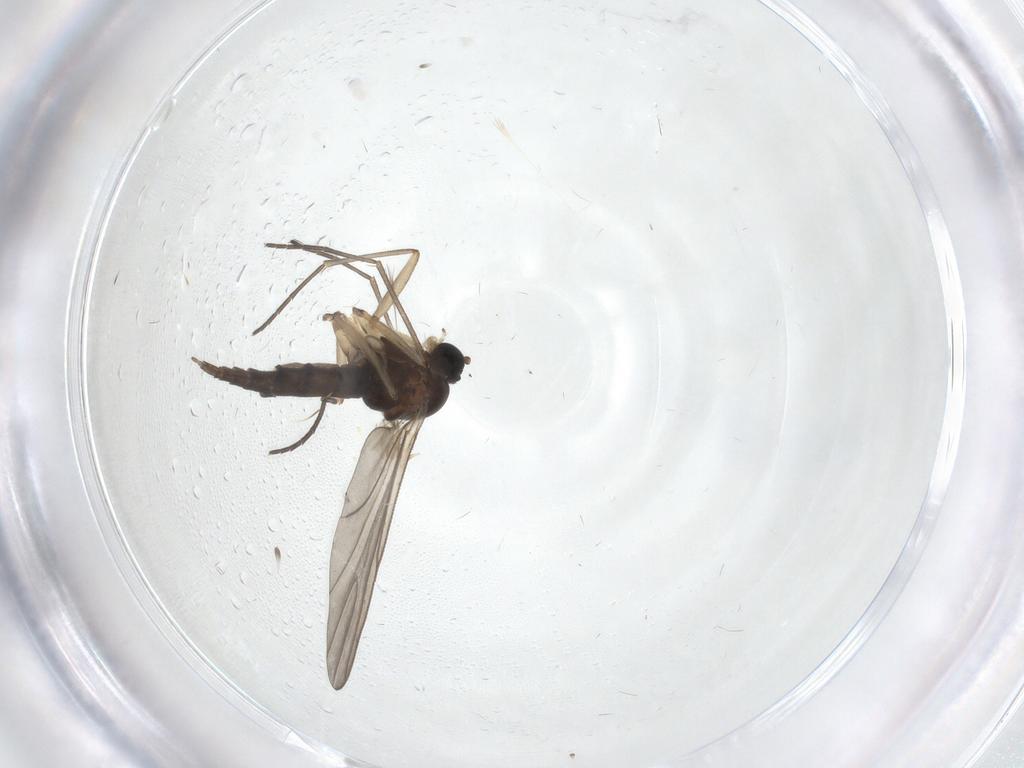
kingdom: Animalia
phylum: Arthropoda
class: Insecta
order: Diptera
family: Sciaridae
